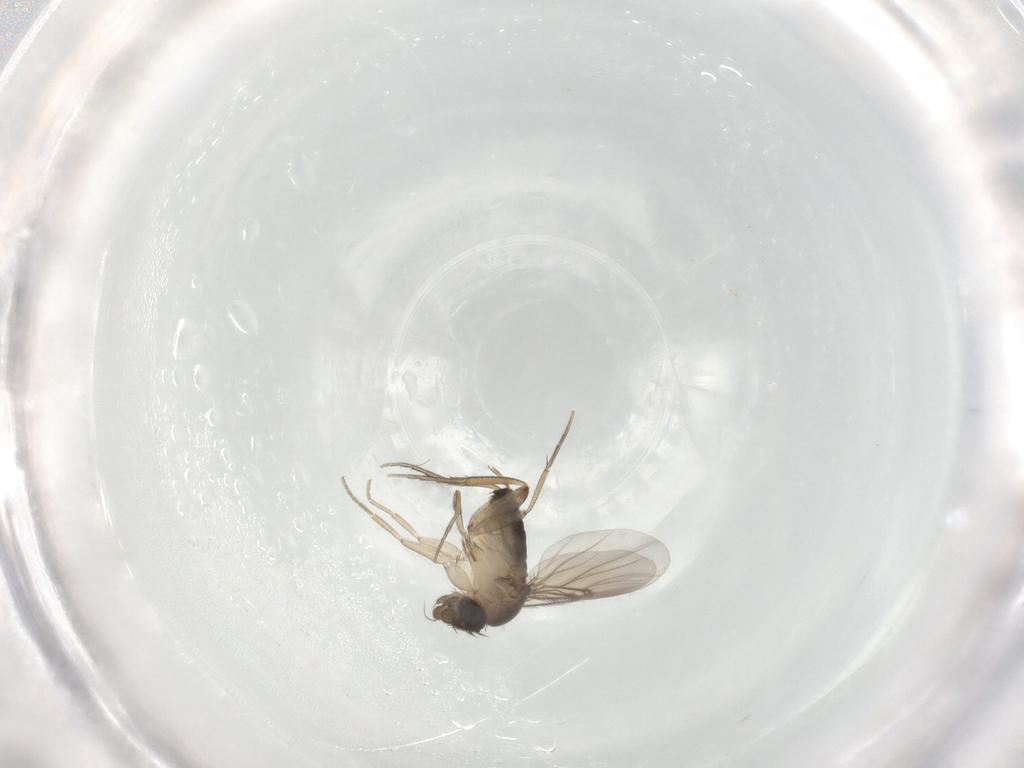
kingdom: Animalia
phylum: Arthropoda
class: Insecta
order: Diptera
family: Phoridae
